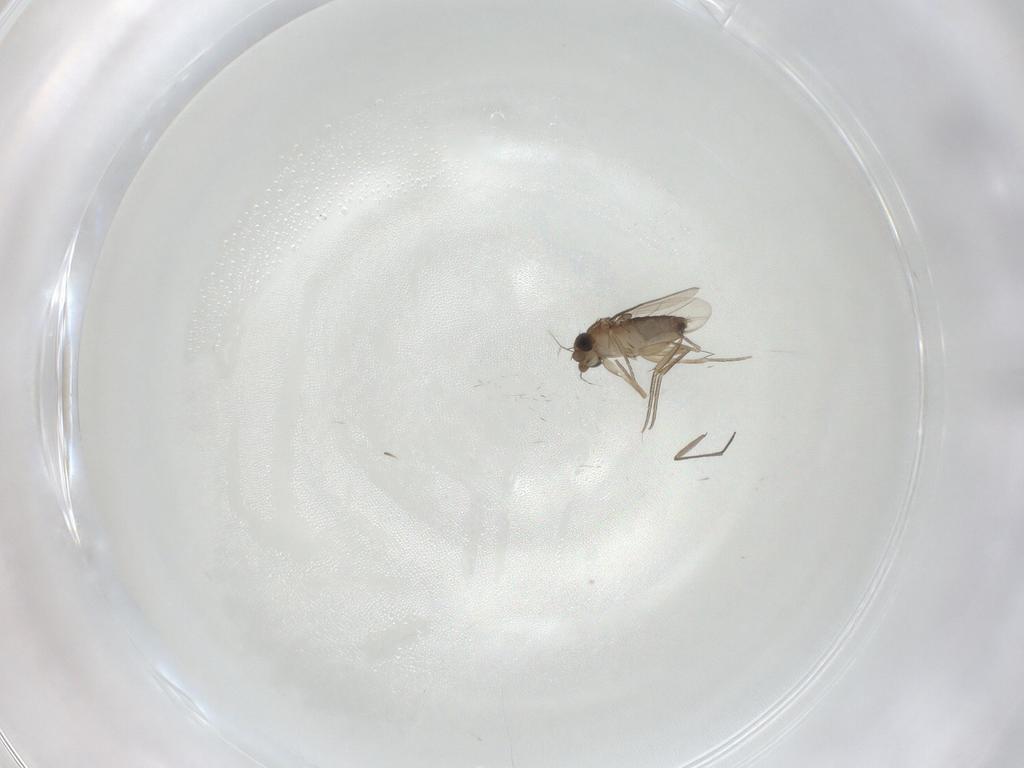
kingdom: Animalia
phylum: Arthropoda
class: Insecta
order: Diptera
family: Phoridae
